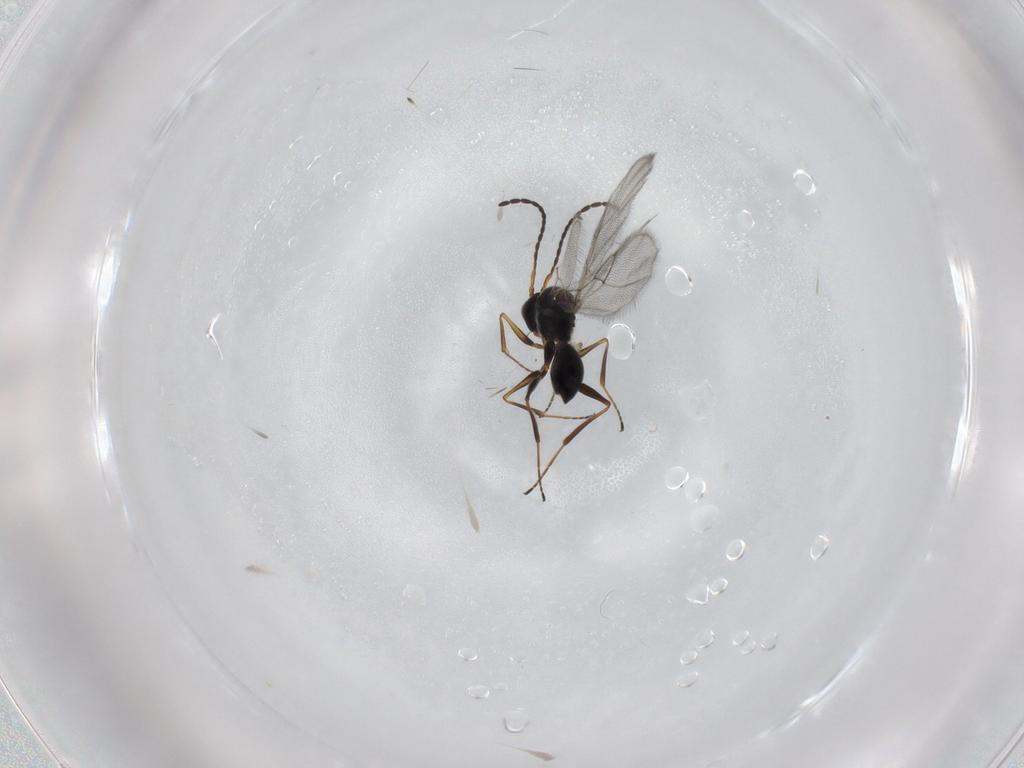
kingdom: Animalia
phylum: Arthropoda
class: Insecta
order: Hymenoptera
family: Figitidae
